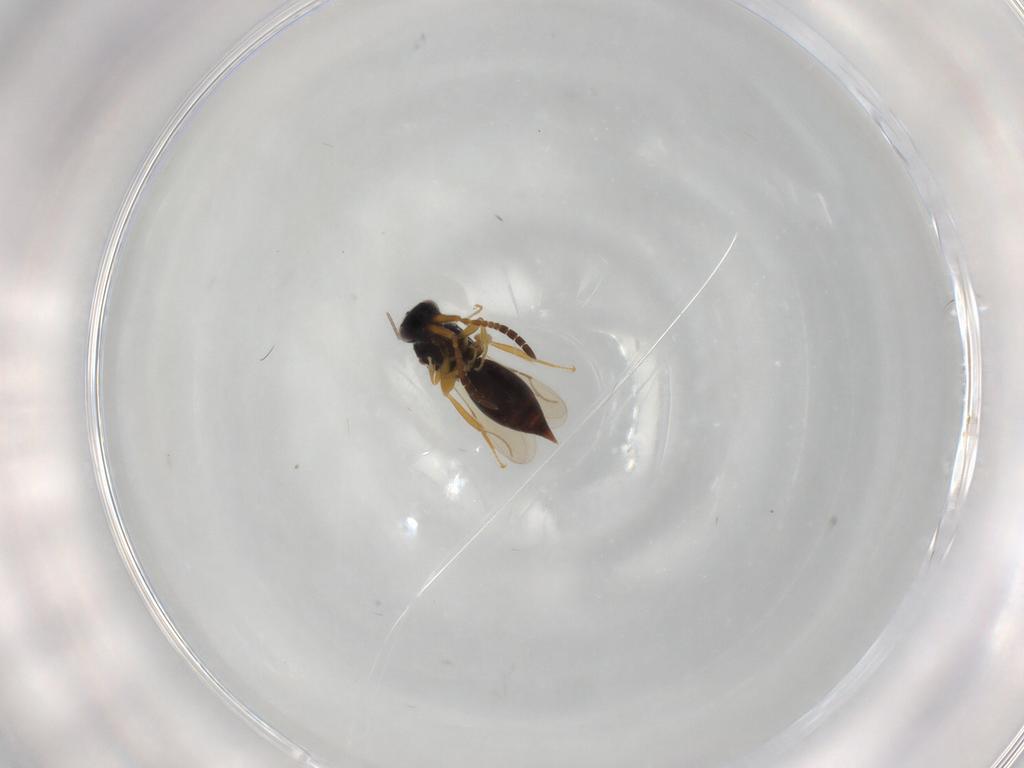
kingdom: Animalia
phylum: Arthropoda
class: Insecta
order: Hymenoptera
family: Ceraphronidae
